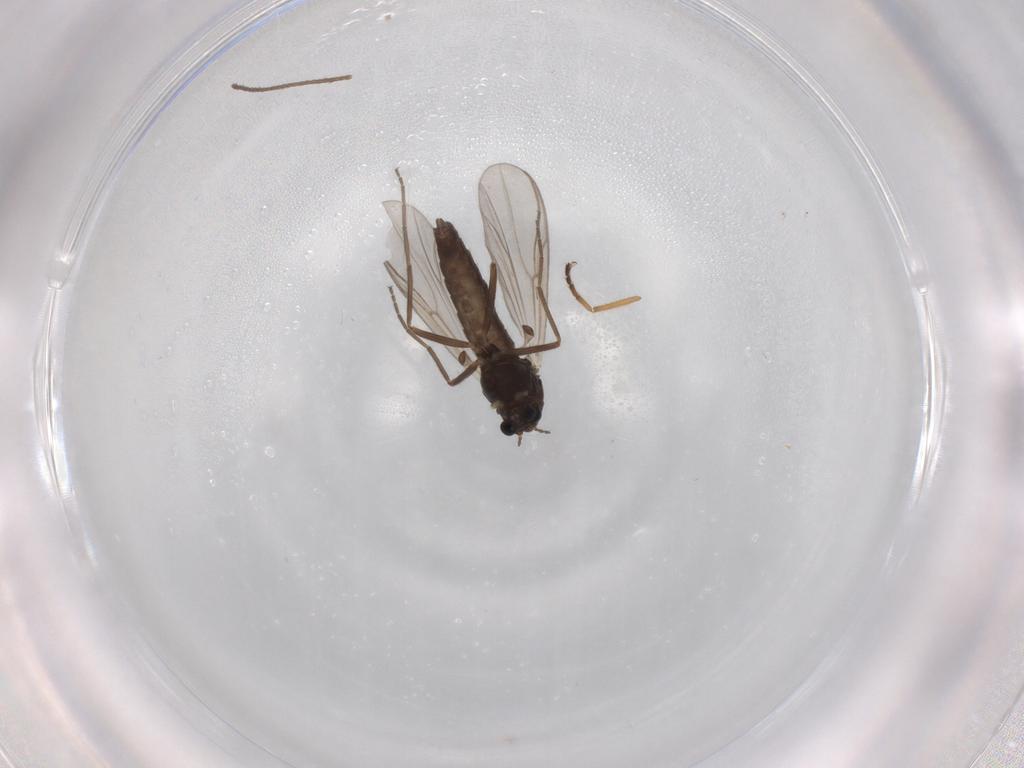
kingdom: Animalia
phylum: Arthropoda
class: Insecta
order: Diptera
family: Chironomidae
